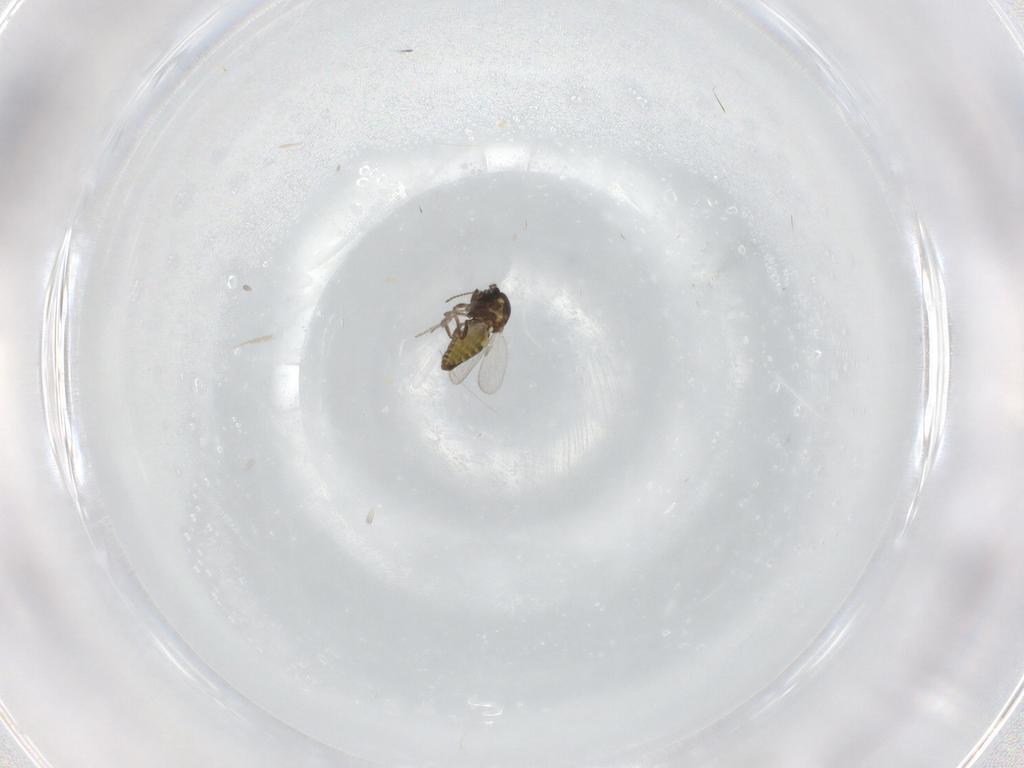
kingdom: Animalia
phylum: Arthropoda
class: Insecta
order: Diptera
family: Ceratopogonidae
